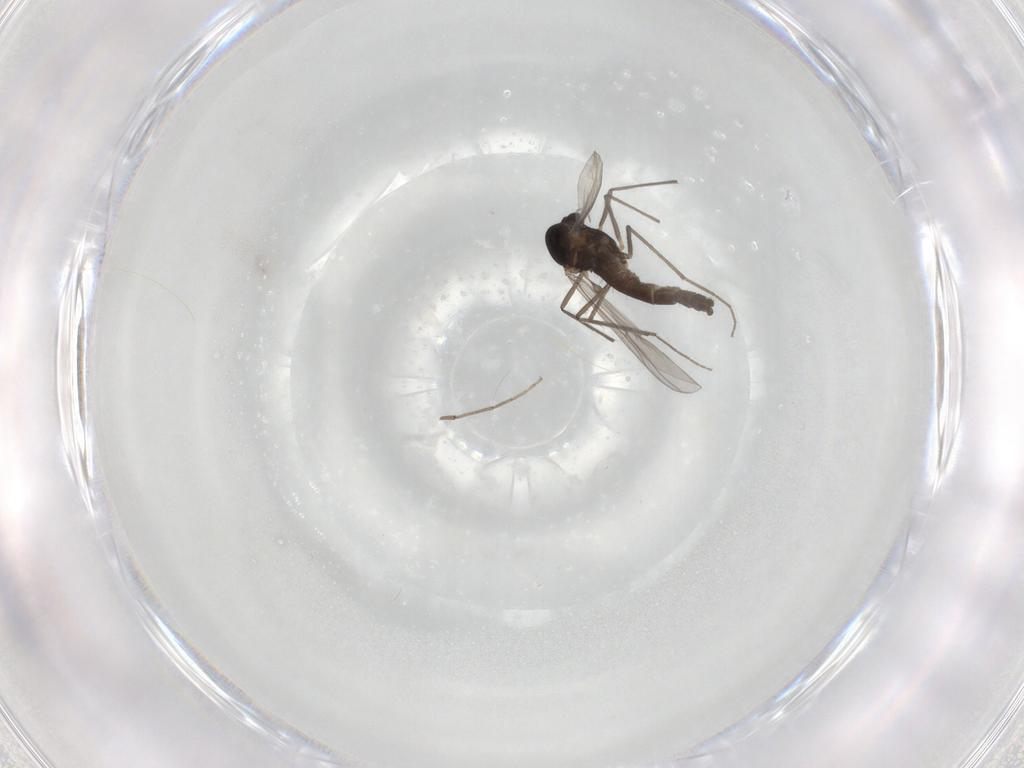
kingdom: Animalia
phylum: Arthropoda
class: Insecta
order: Diptera
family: Chironomidae
